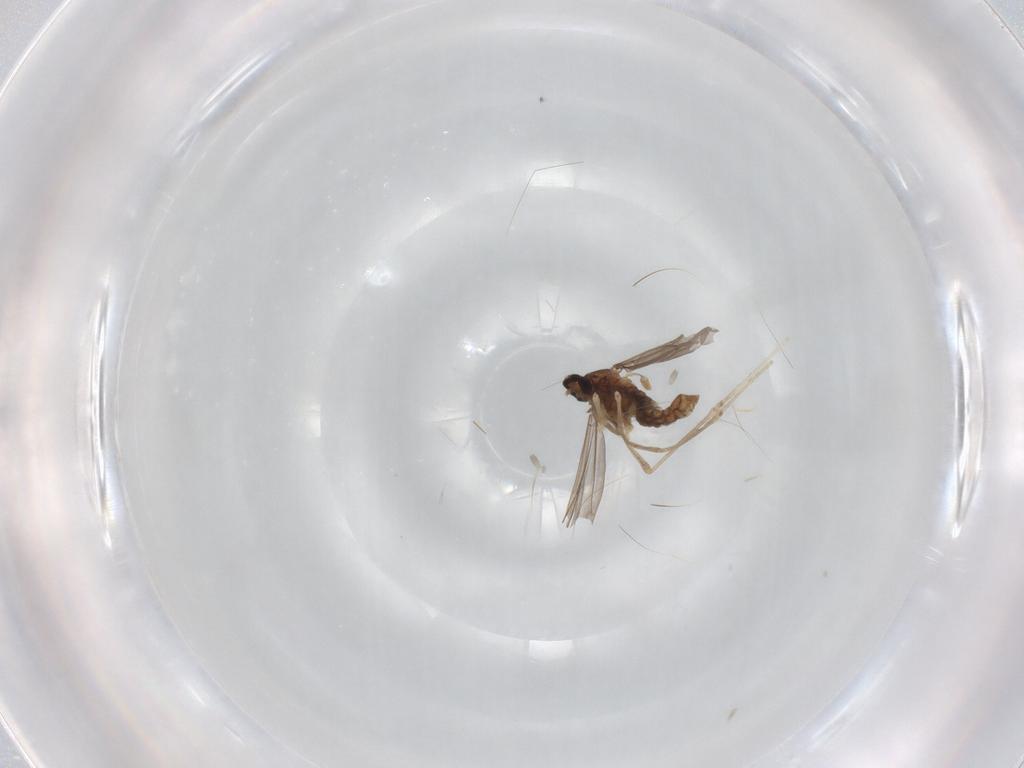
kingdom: Animalia
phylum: Arthropoda
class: Insecta
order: Diptera
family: Cecidomyiidae
